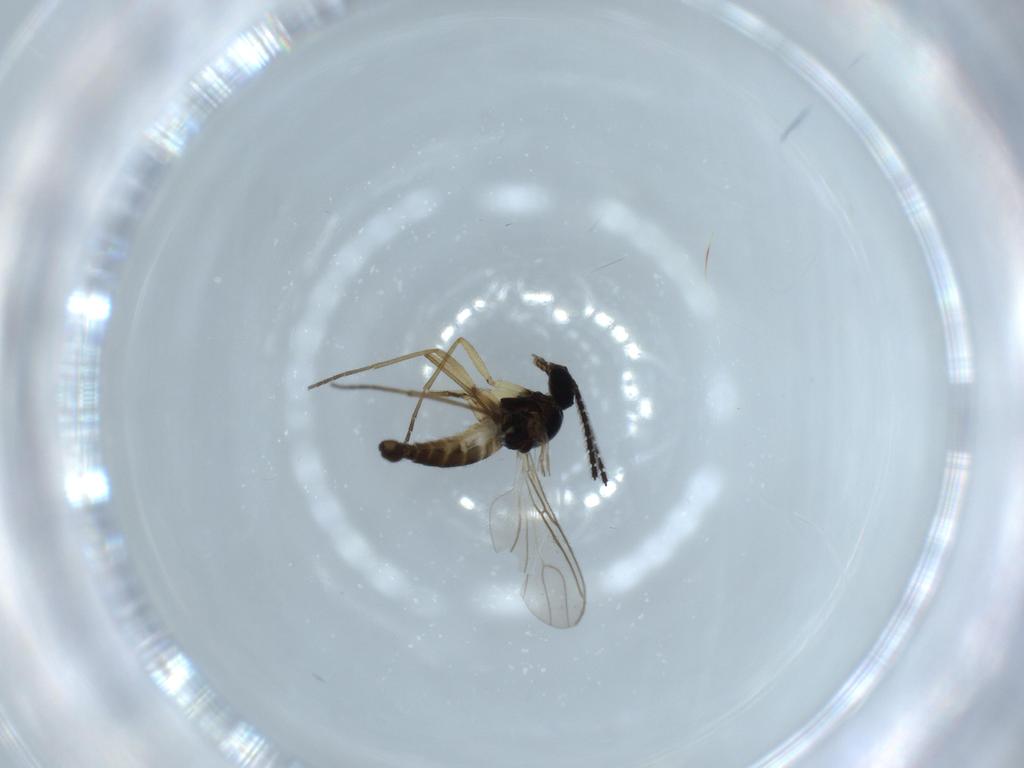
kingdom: Animalia
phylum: Arthropoda
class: Insecta
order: Diptera
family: Sciaridae
